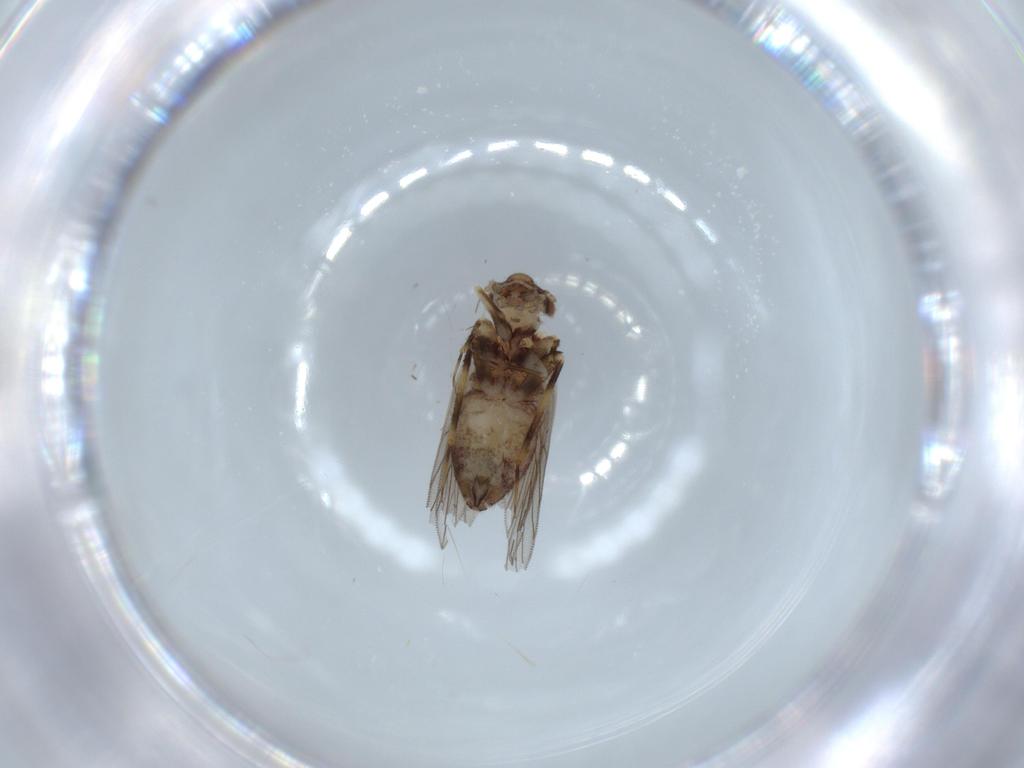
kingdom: Animalia
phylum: Arthropoda
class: Insecta
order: Psocodea
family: Lepidopsocidae
